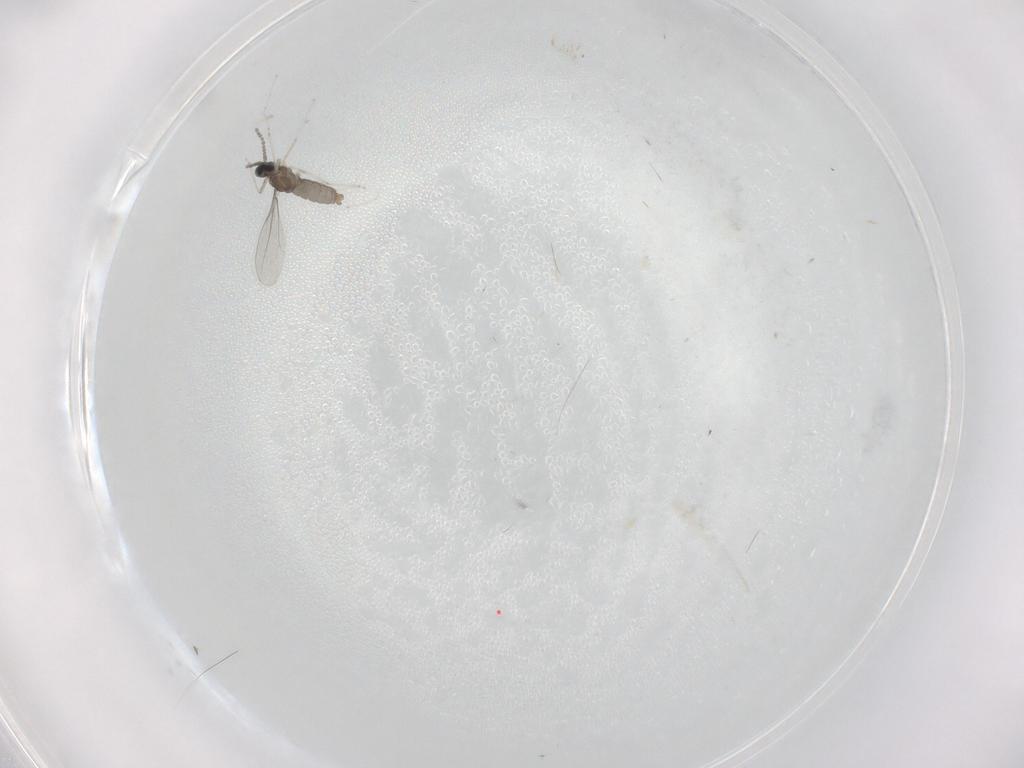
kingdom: Animalia
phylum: Arthropoda
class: Insecta
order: Diptera
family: Cecidomyiidae
